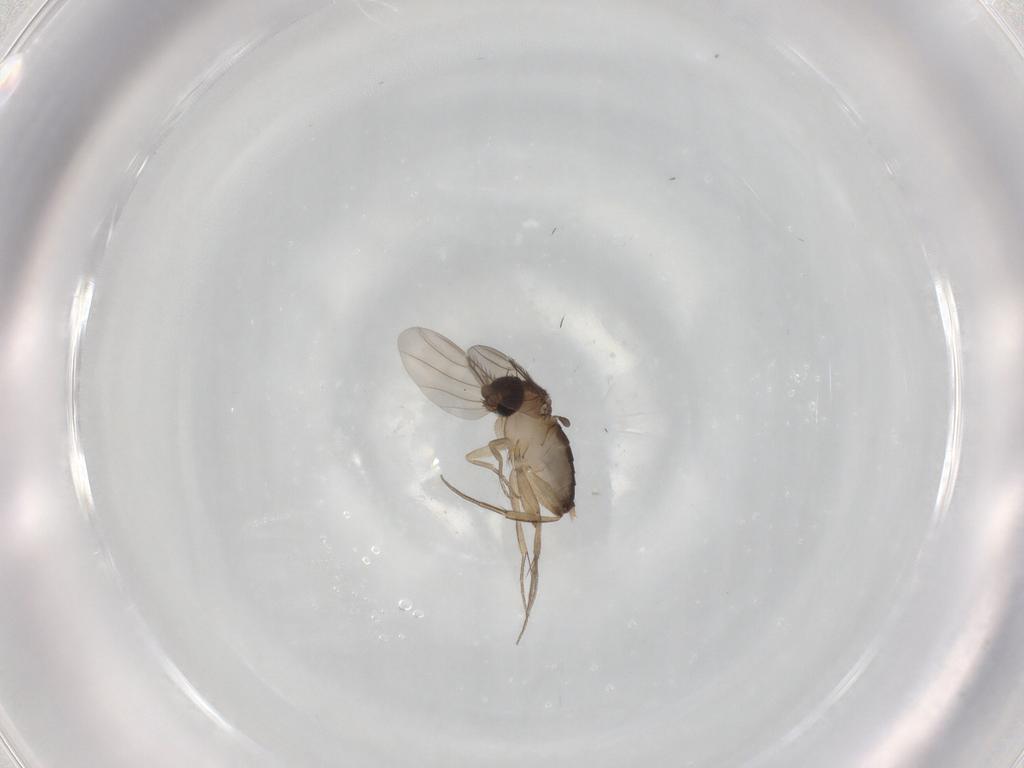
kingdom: Animalia
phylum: Arthropoda
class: Insecta
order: Diptera
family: Phoridae
